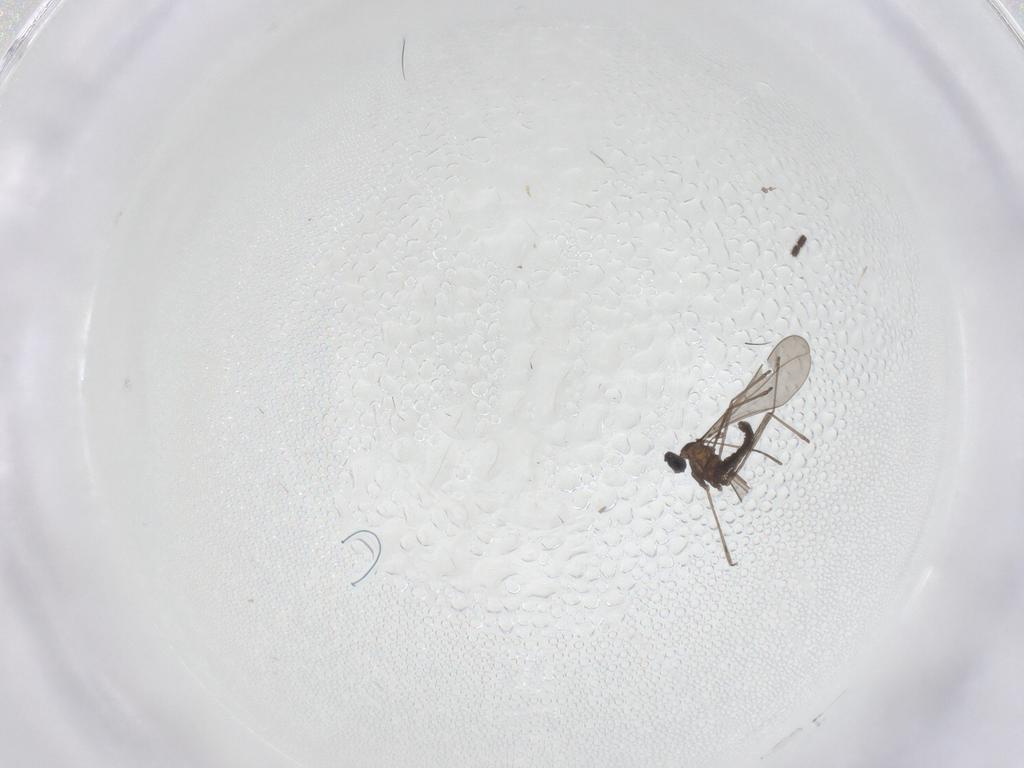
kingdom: Animalia
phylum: Arthropoda
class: Insecta
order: Diptera
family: Sciaridae
